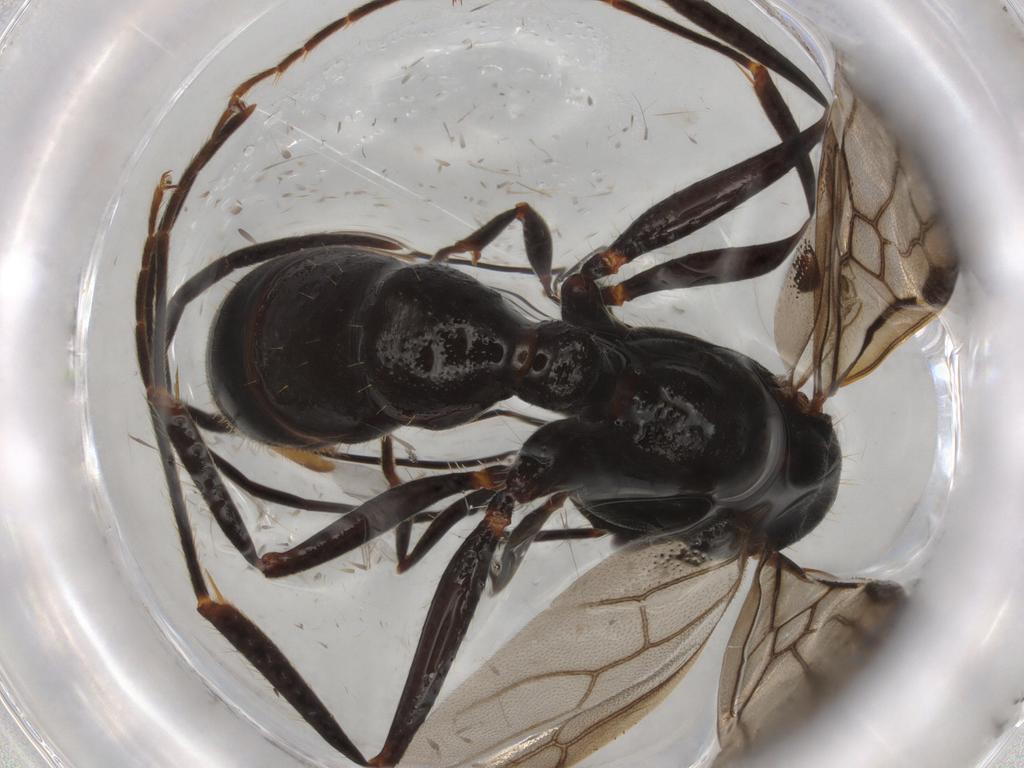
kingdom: Animalia
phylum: Arthropoda
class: Insecta
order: Hymenoptera
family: Formicidae
